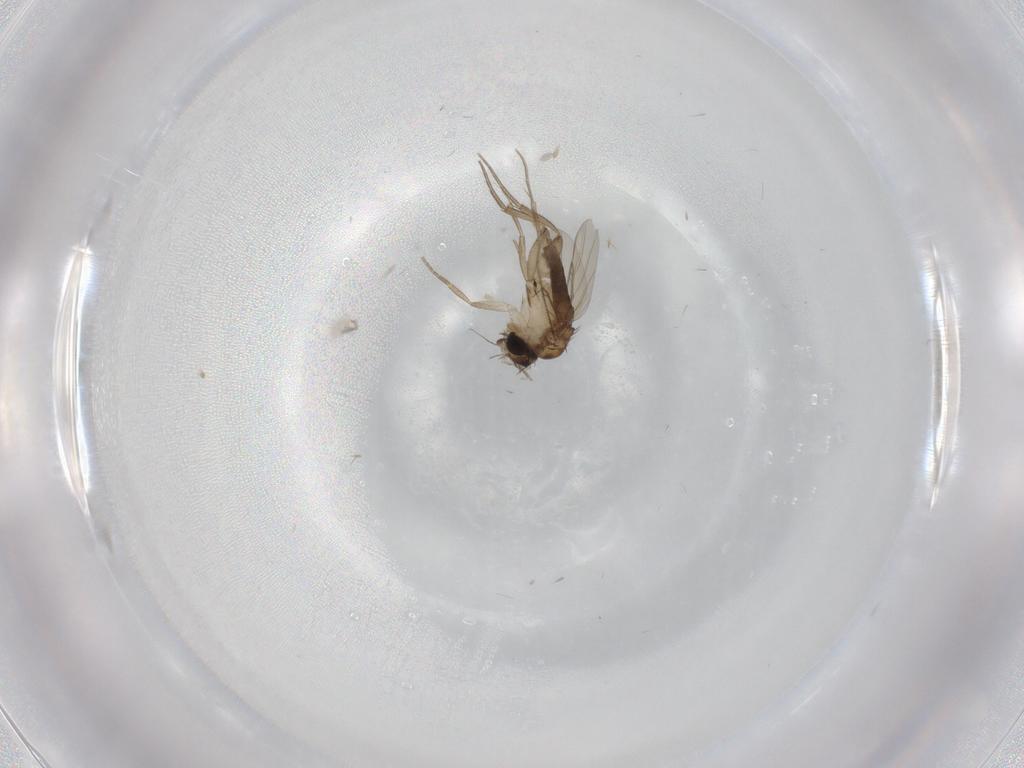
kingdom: Animalia
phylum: Arthropoda
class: Insecta
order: Diptera
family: Chironomidae
